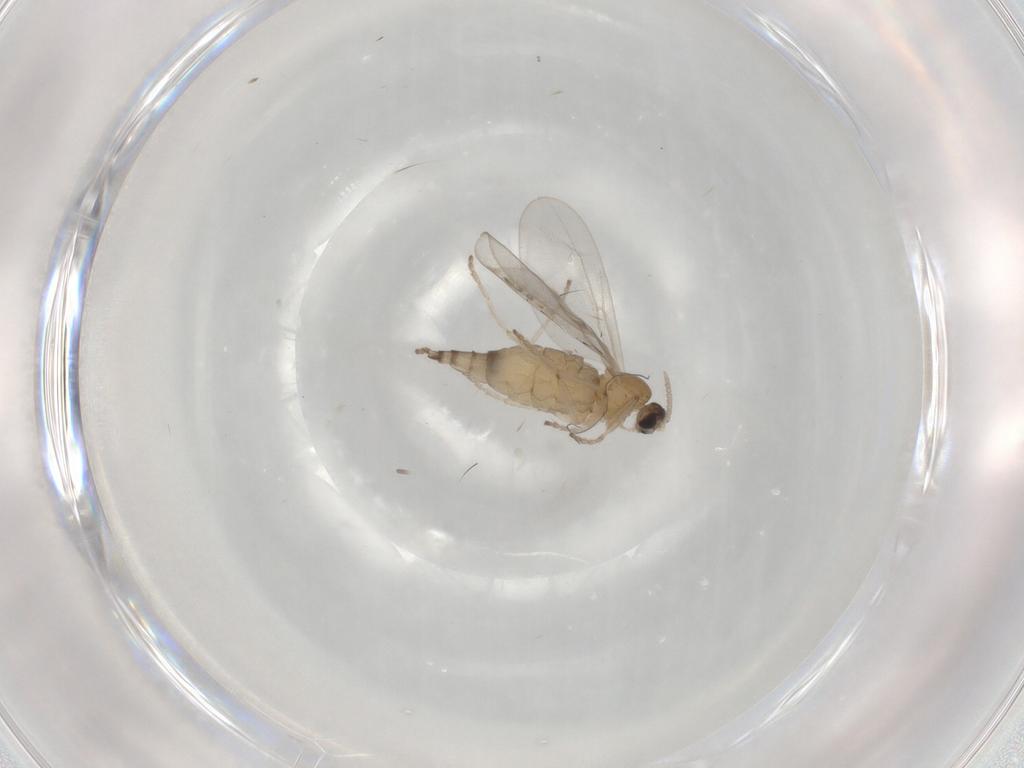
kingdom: Animalia
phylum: Arthropoda
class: Insecta
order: Diptera
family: Cecidomyiidae
